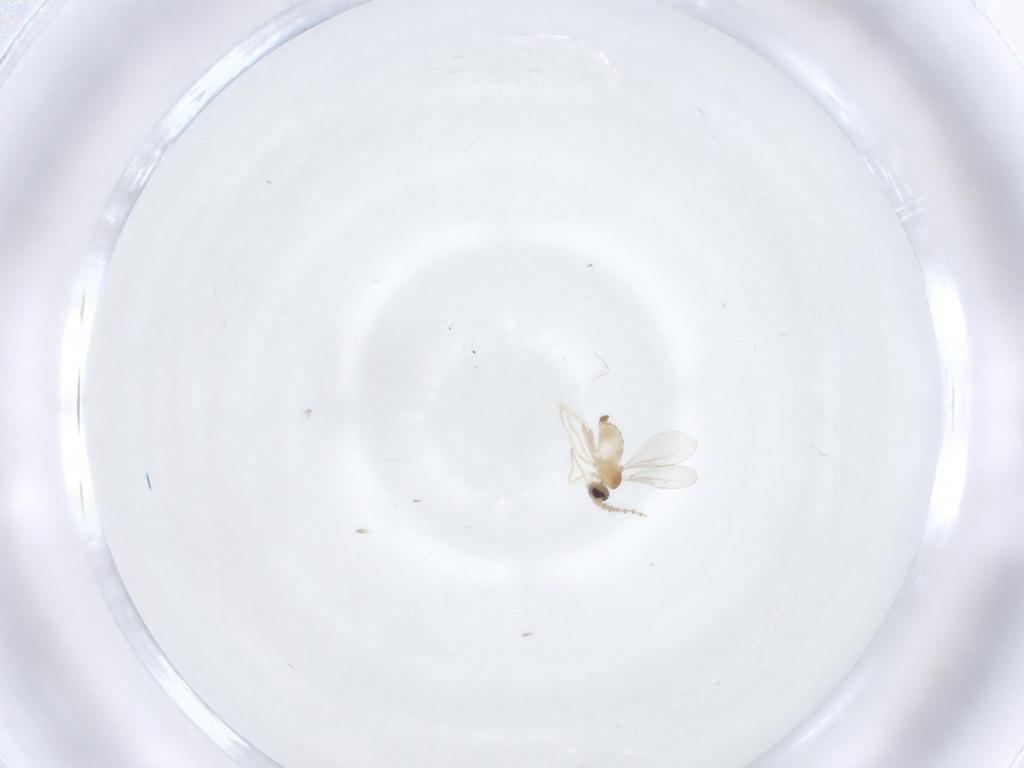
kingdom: Animalia
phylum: Arthropoda
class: Insecta
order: Diptera
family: Cecidomyiidae
